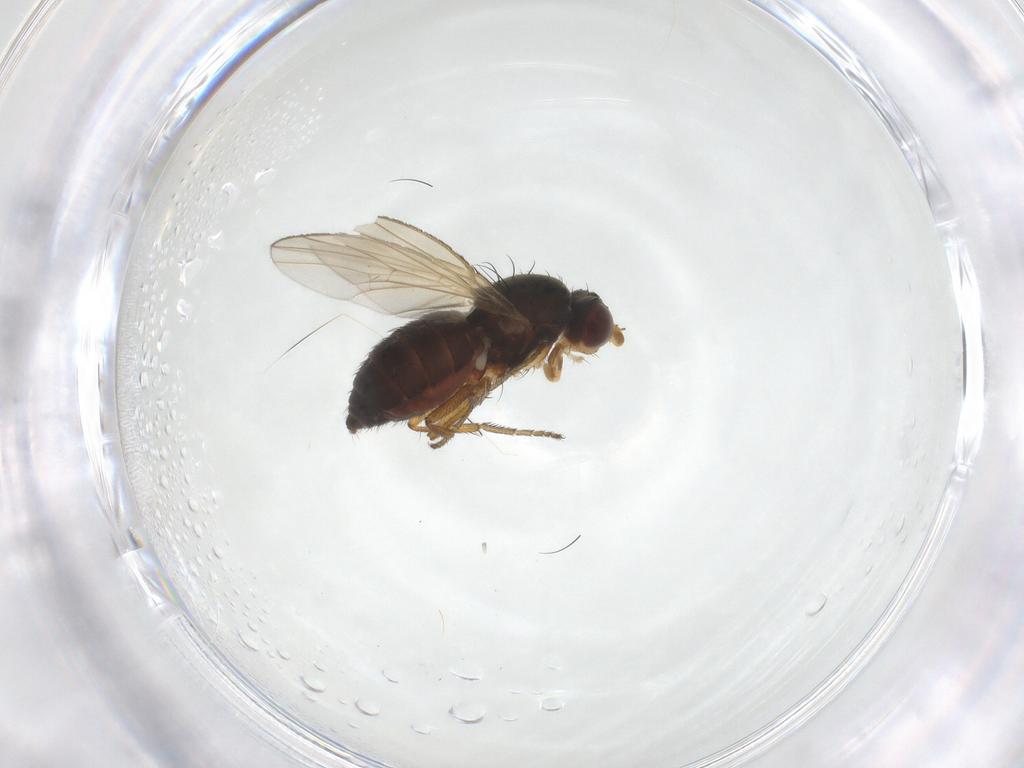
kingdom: Animalia
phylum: Arthropoda
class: Insecta
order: Diptera
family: Heleomyzidae
